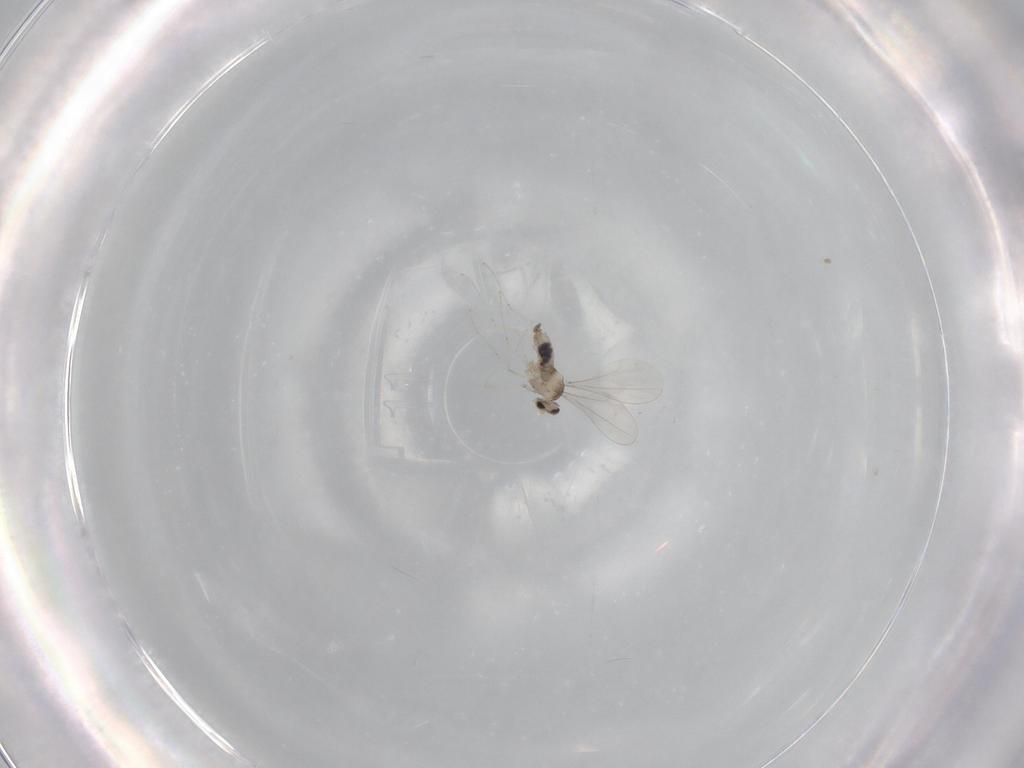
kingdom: Animalia
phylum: Arthropoda
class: Insecta
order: Diptera
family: Cecidomyiidae
